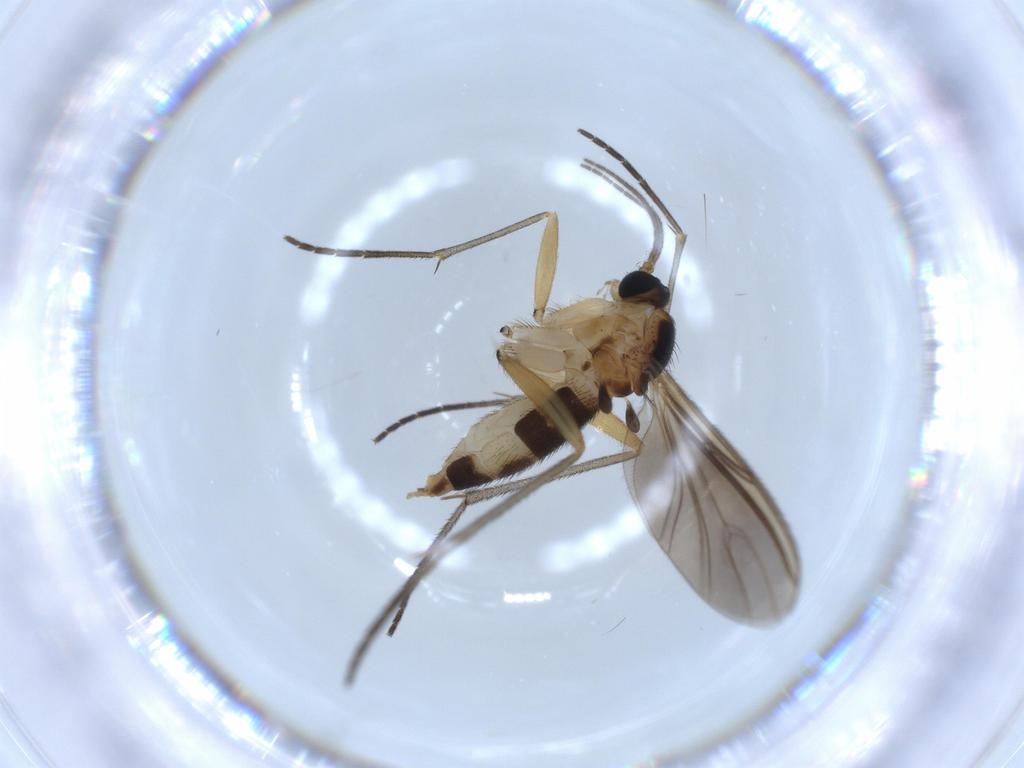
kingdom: Animalia
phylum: Arthropoda
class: Insecta
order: Diptera
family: Sciaridae
